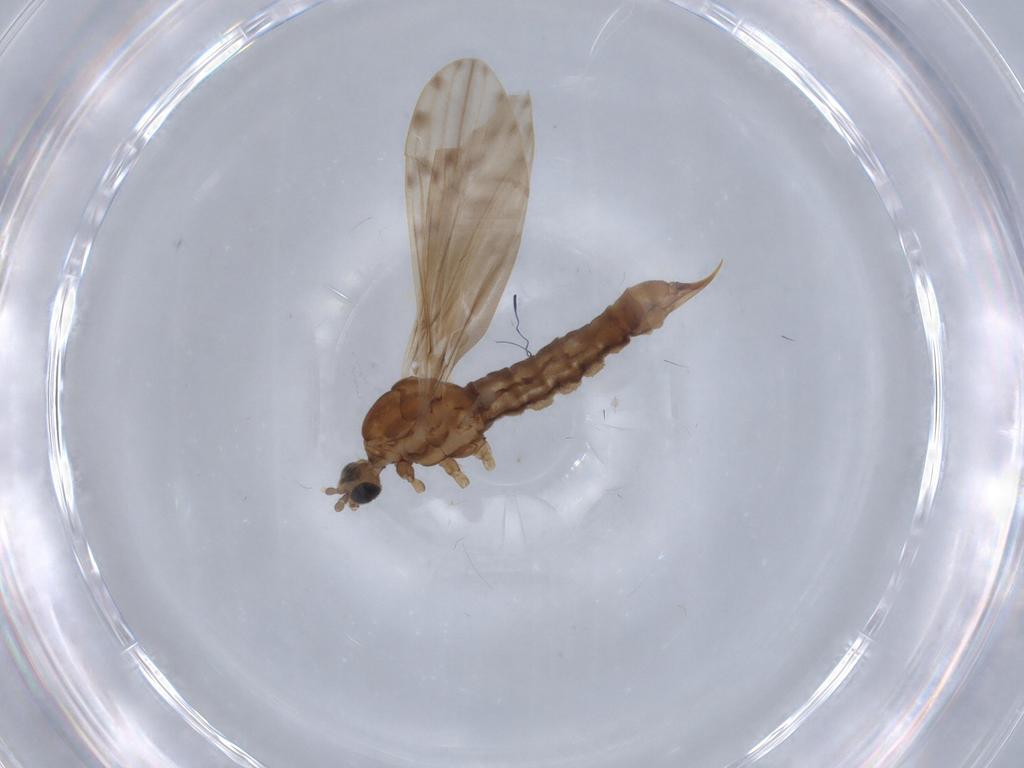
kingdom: Animalia
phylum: Arthropoda
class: Insecta
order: Diptera
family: Limoniidae
